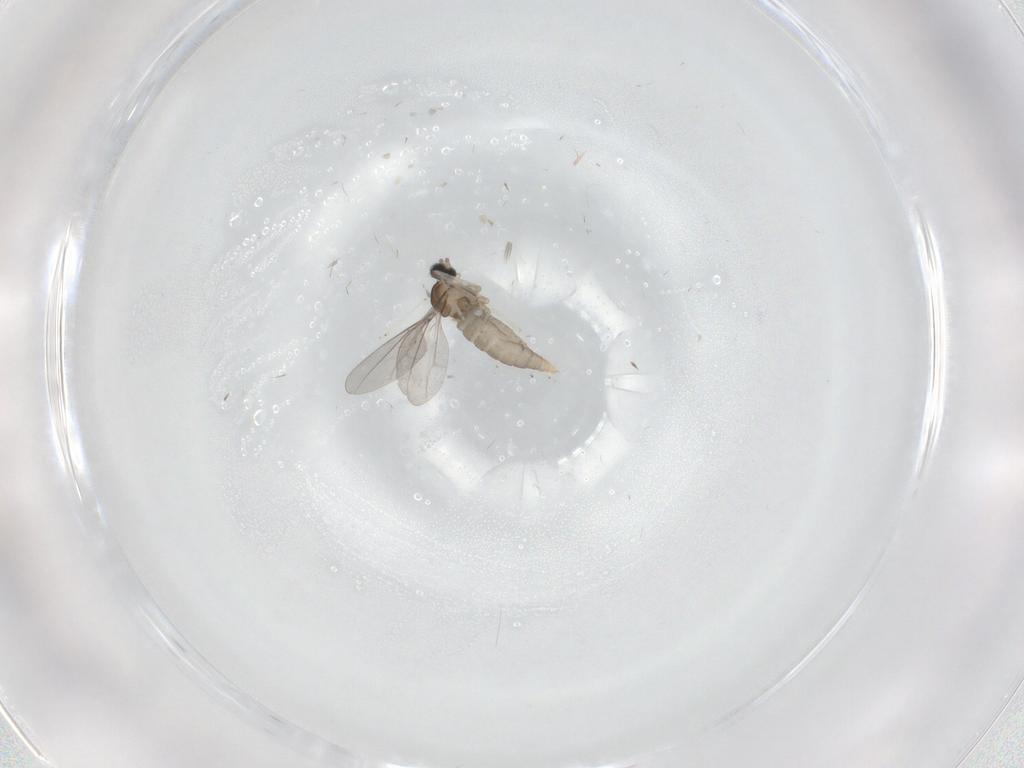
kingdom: Animalia
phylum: Arthropoda
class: Insecta
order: Diptera
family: Cecidomyiidae
